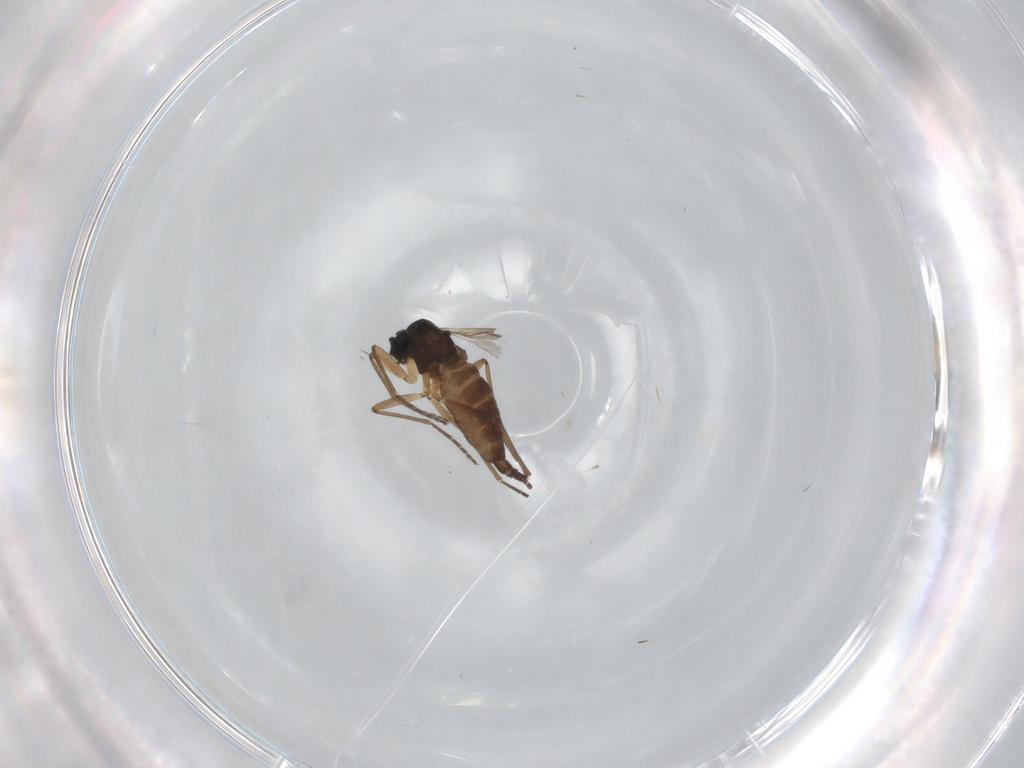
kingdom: Animalia
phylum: Arthropoda
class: Insecta
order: Diptera
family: Sciaridae
